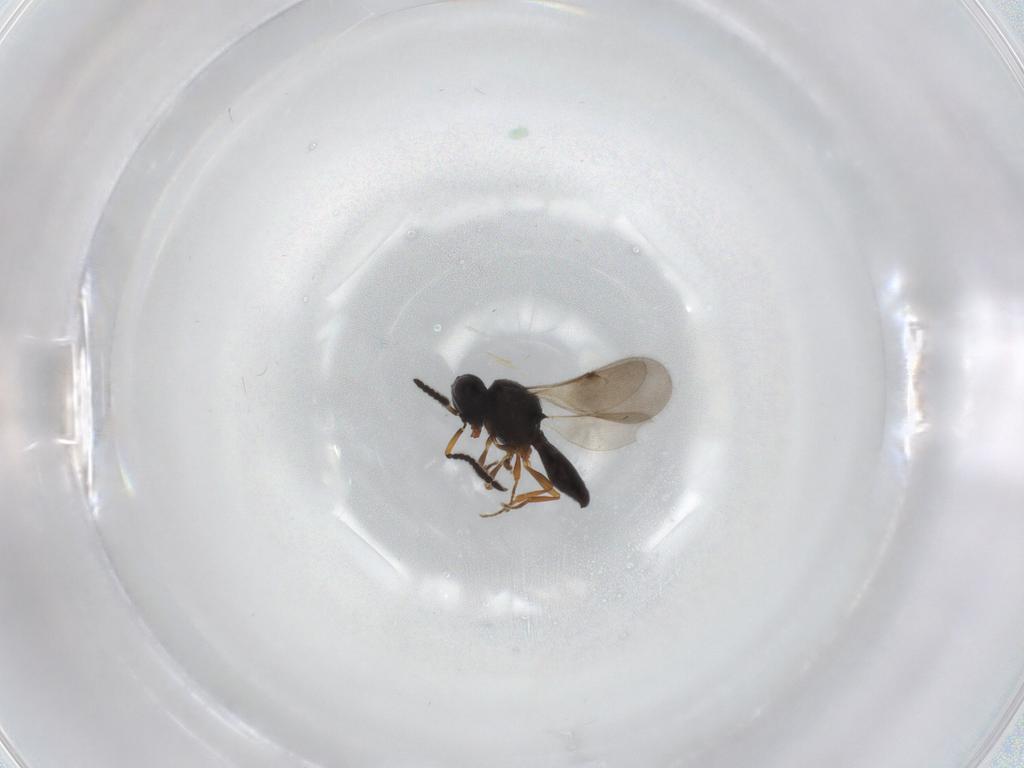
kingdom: Animalia
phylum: Arthropoda
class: Insecta
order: Hymenoptera
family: Scelionidae
